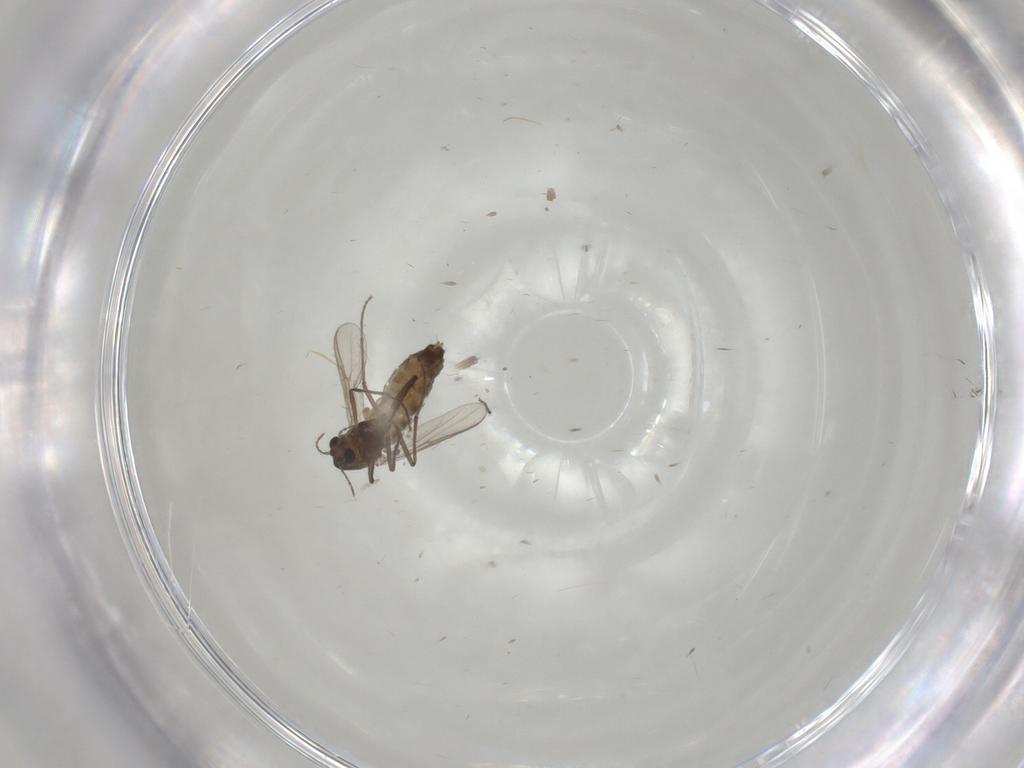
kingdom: Animalia
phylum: Arthropoda
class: Insecta
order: Diptera
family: Chironomidae
